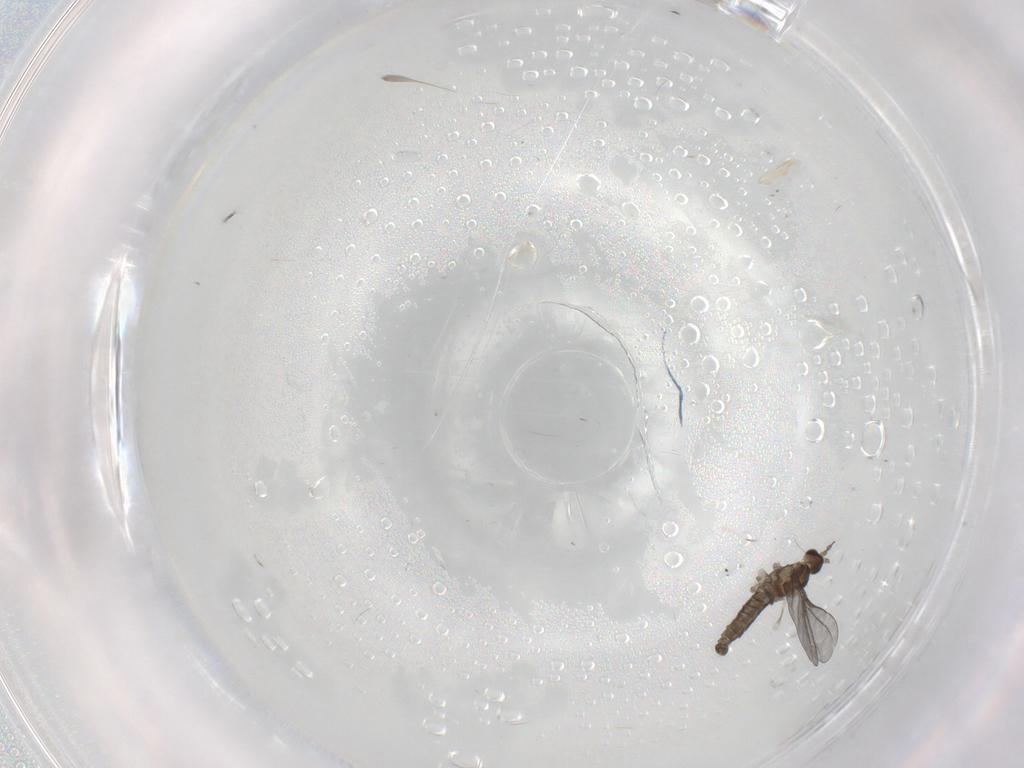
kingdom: Animalia
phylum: Arthropoda
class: Insecta
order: Diptera
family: Cecidomyiidae
